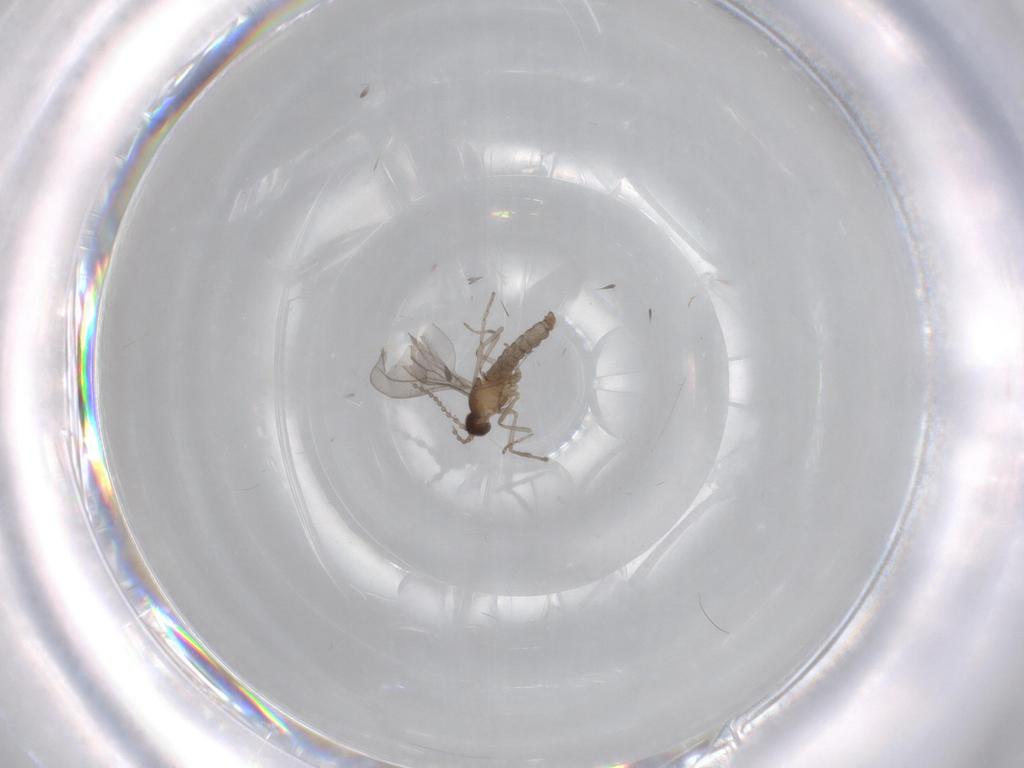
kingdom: Animalia
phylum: Arthropoda
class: Insecta
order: Diptera
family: Cecidomyiidae
